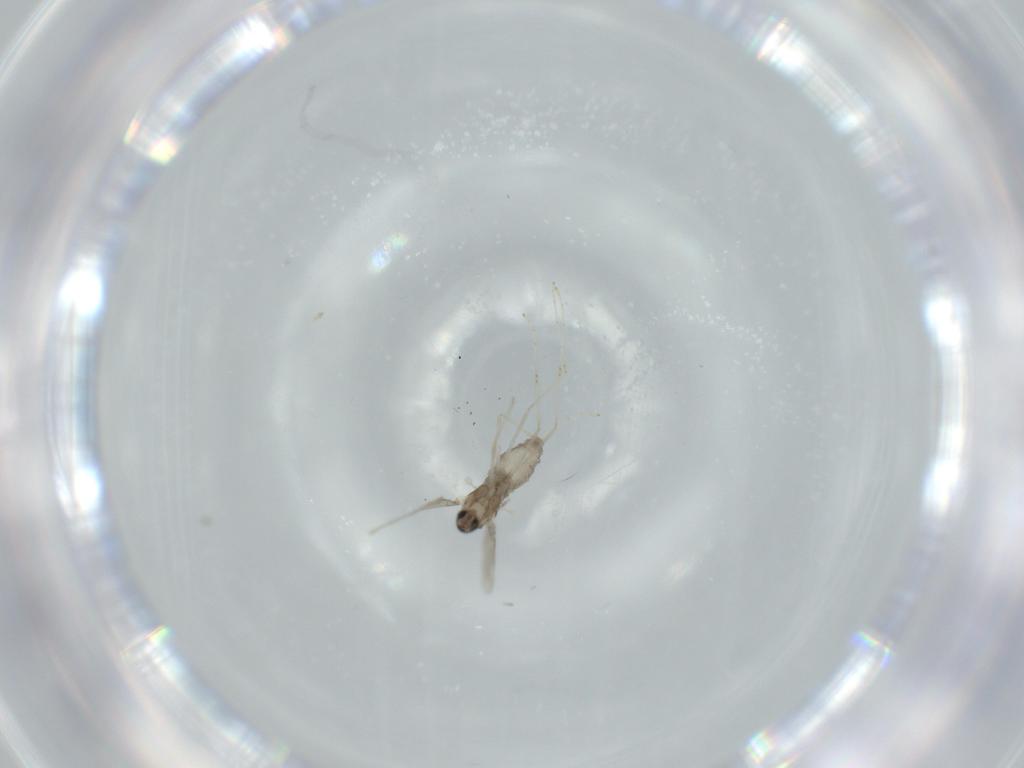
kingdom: Animalia
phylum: Arthropoda
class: Insecta
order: Diptera
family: Cecidomyiidae
